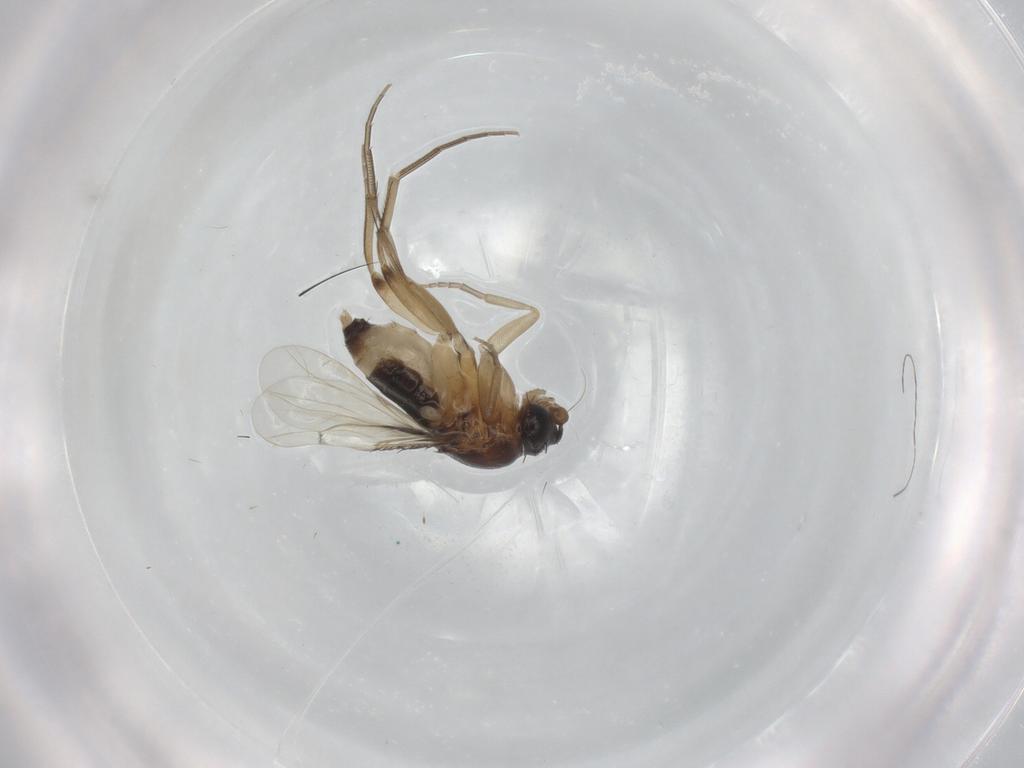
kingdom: Animalia
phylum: Arthropoda
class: Insecta
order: Diptera
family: Phoridae
